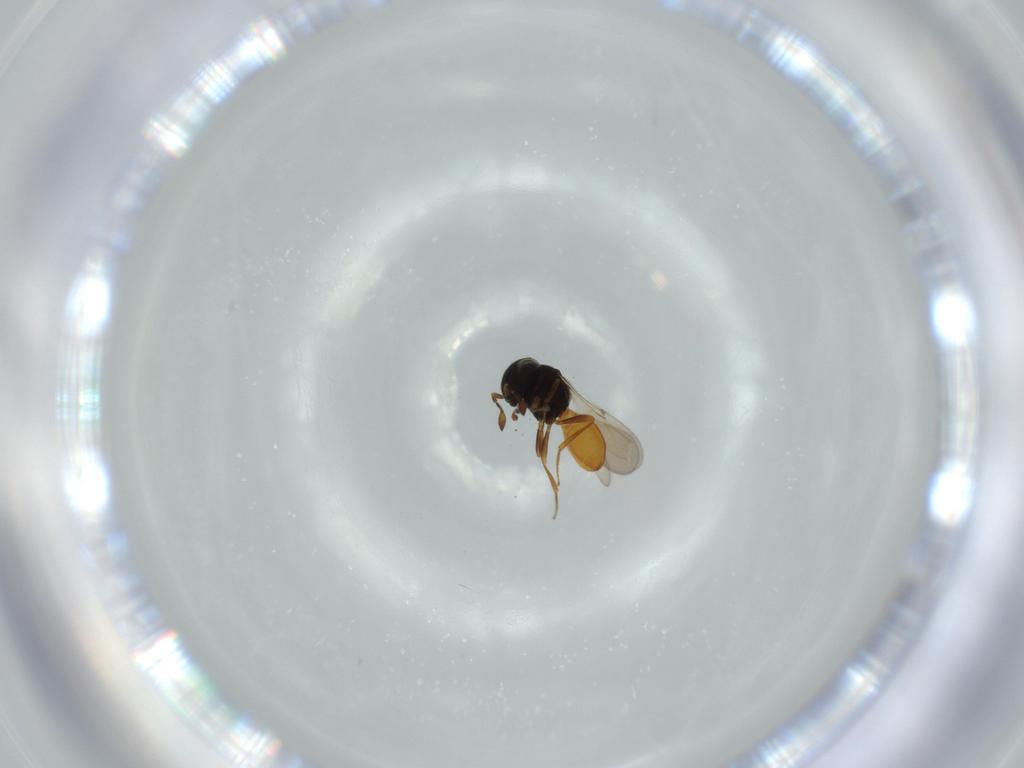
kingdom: Animalia
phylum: Arthropoda
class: Insecta
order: Hymenoptera
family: Scelionidae
